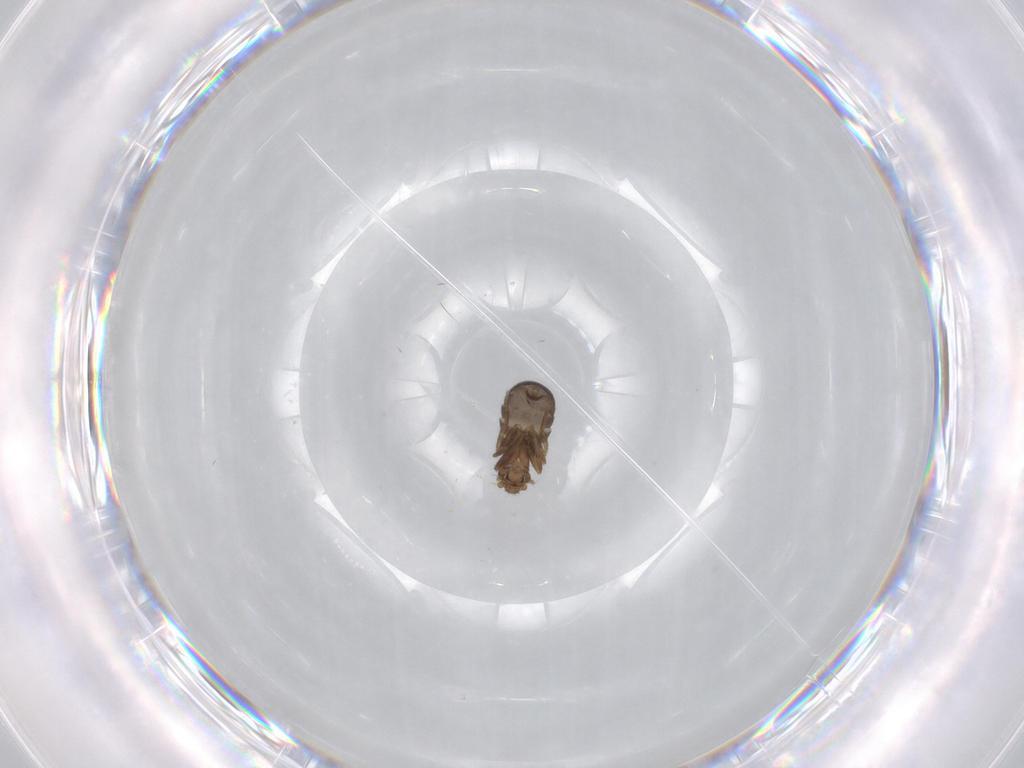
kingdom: Animalia
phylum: Arthropoda
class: Insecta
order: Diptera
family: Phoridae
